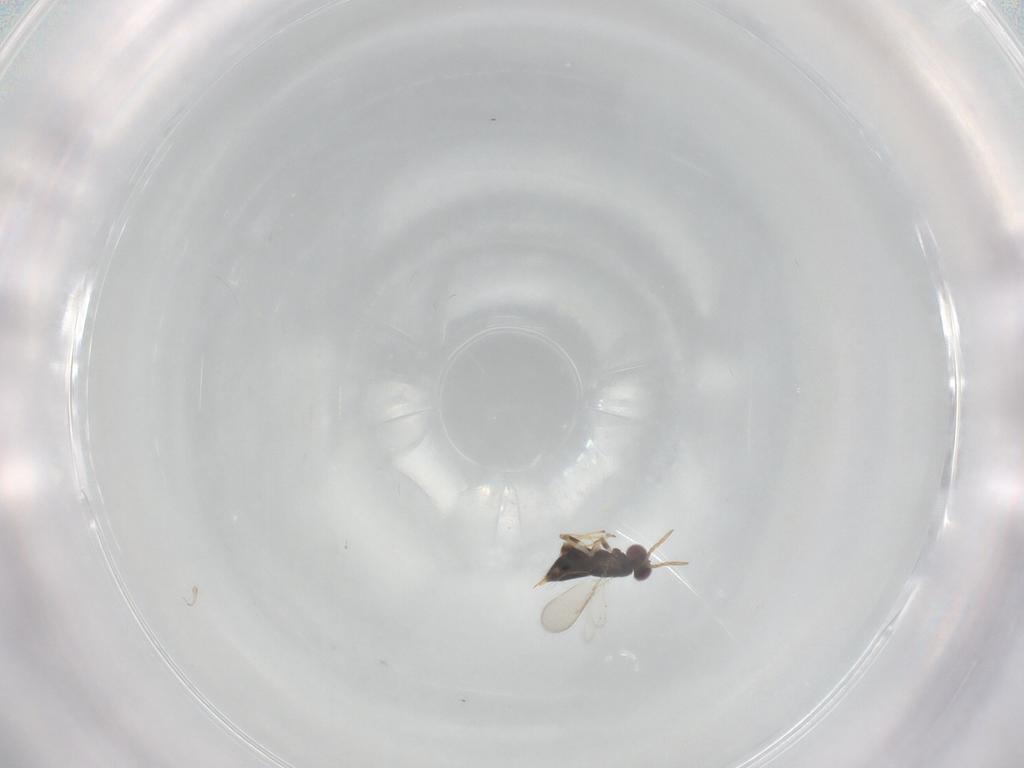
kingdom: Animalia
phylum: Arthropoda
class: Insecta
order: Hymenoptera
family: Aphelinidae
